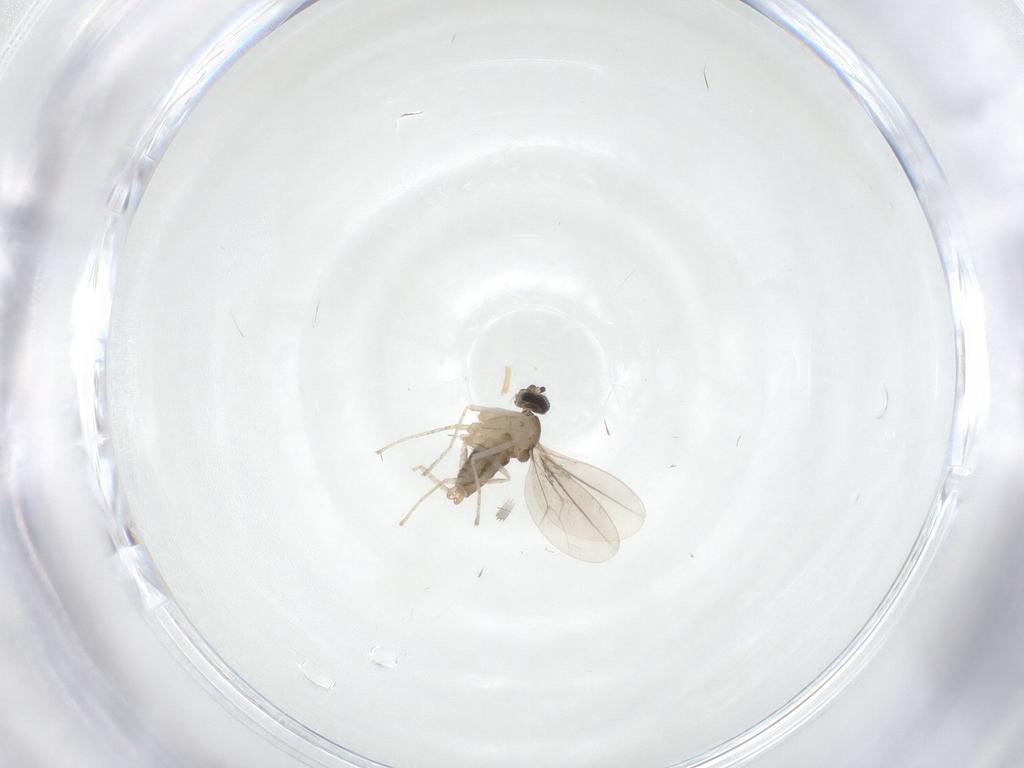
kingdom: Animalia
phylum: Arthropoda
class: Insecta
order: Diptera
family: Cecidomyiidae
